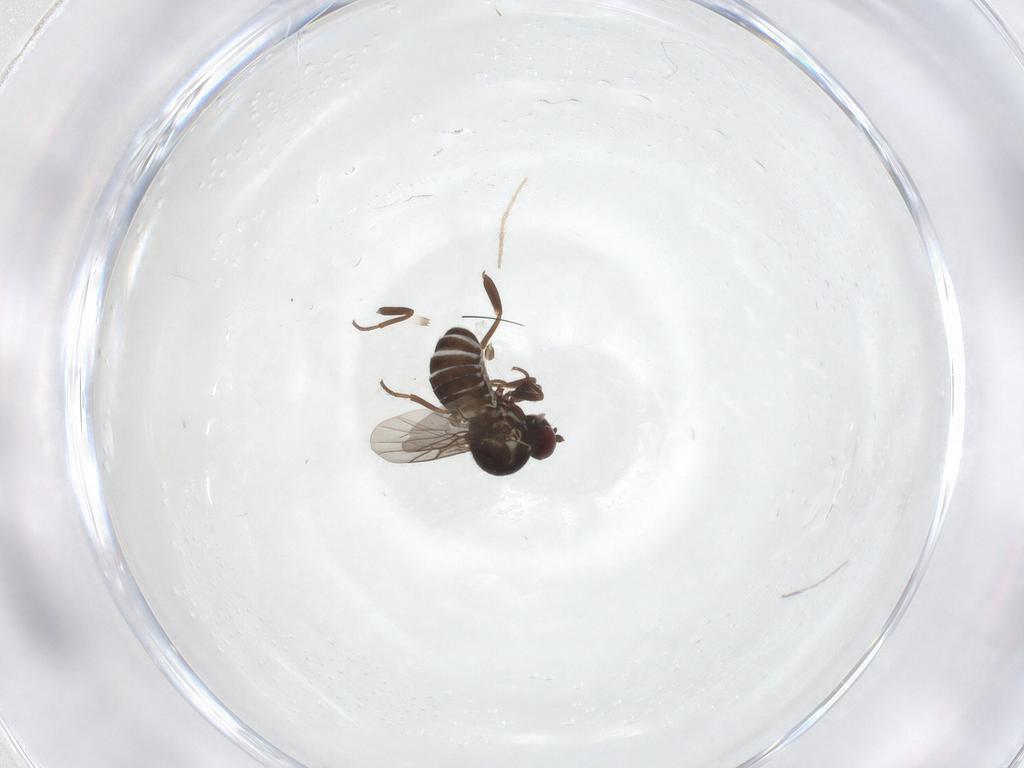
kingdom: Animalia
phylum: Arthropoda
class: Insecta
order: Diptera
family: Mythicomyiidae
